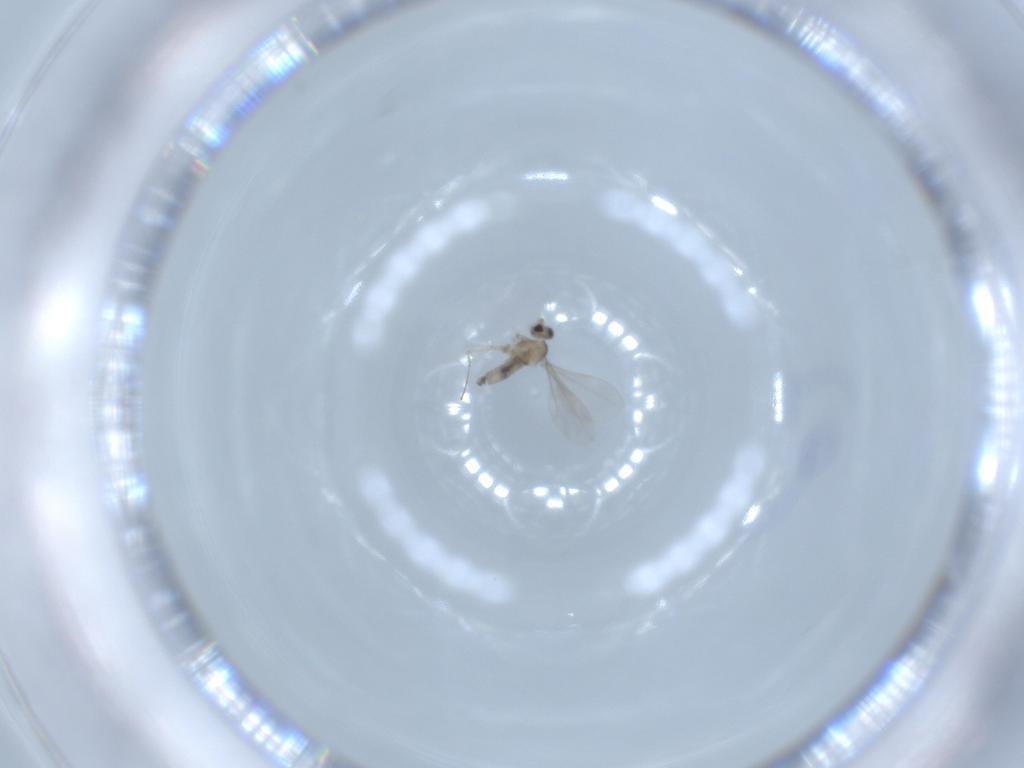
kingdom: Animalia
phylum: Arthropoda
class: Insecta
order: Diptera
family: Cecidomyiidae
